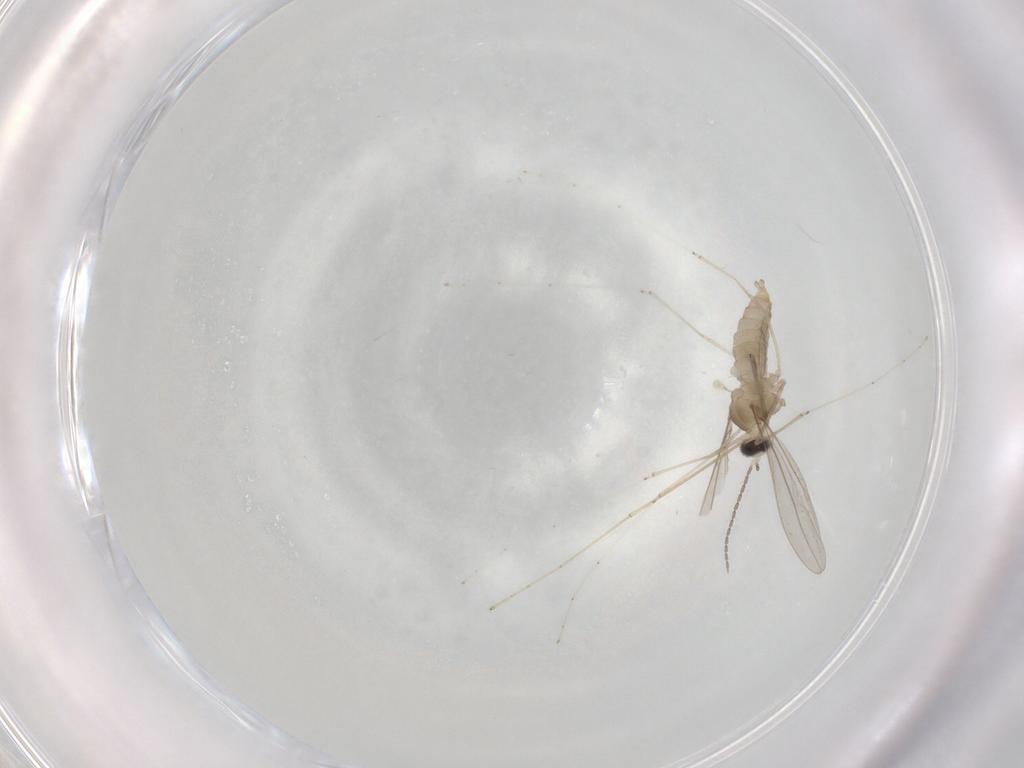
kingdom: Animalia
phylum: Arthropoda
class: Insecta
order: Diptera
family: Cecidomyiidae
